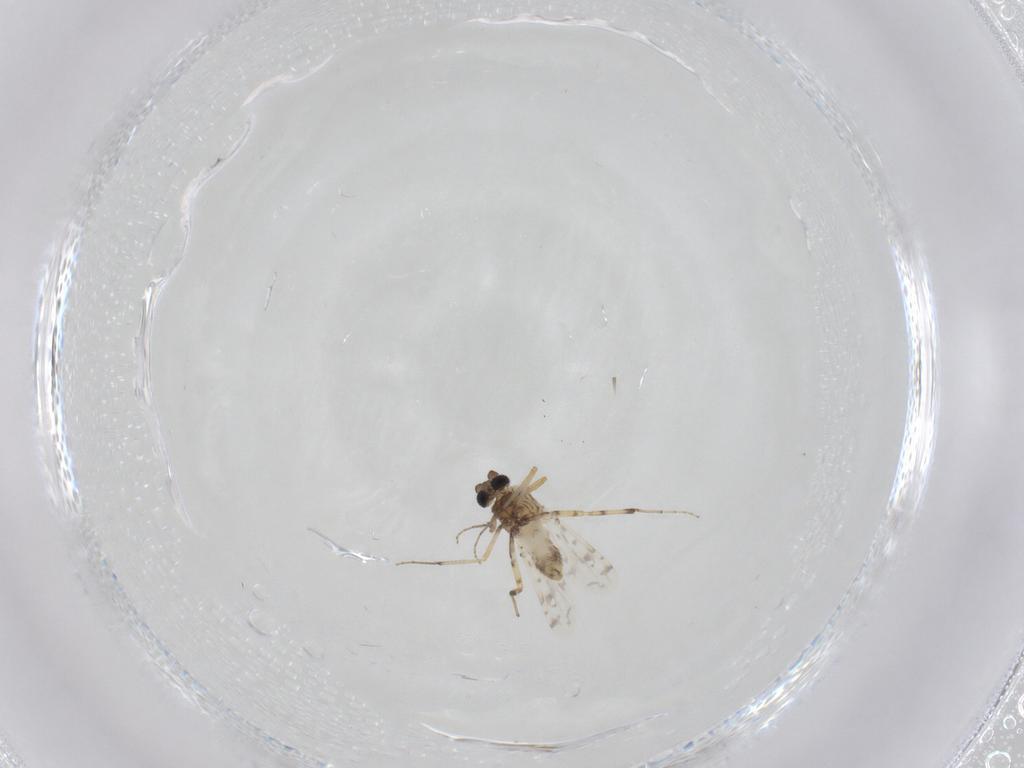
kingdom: Animalia
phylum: Arthropoda
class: Insecta
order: Diptera
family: Ceratopogonidae
